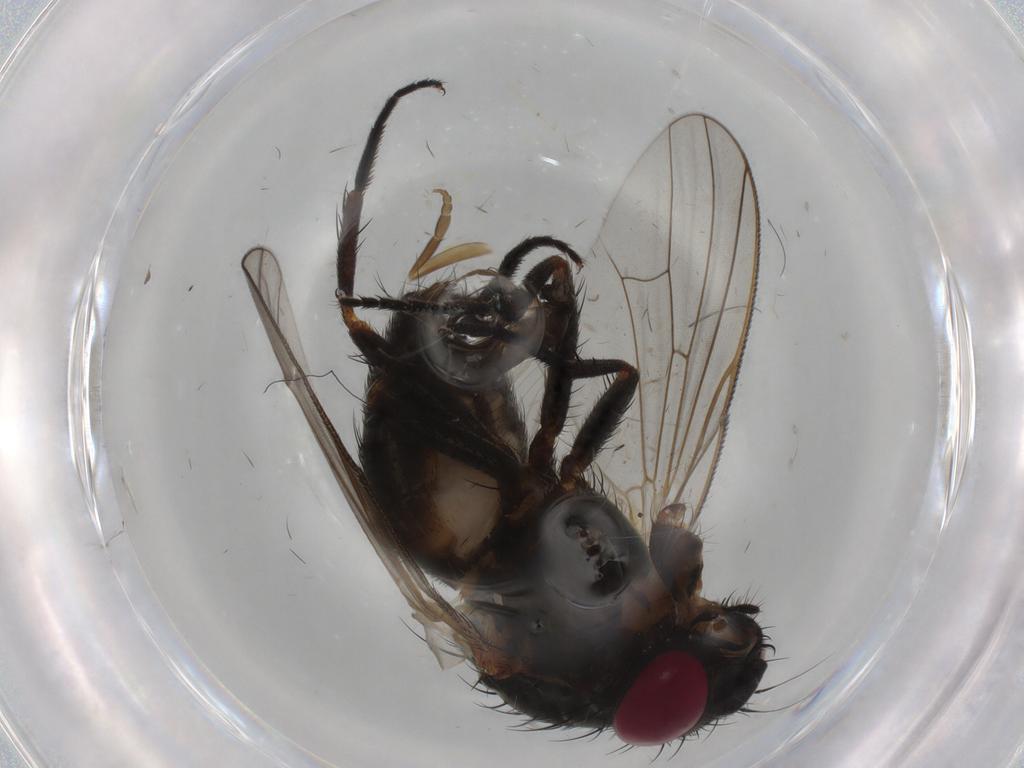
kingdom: Animalia
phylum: Arthropoda
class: Insecta
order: Diptera
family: Fannia
